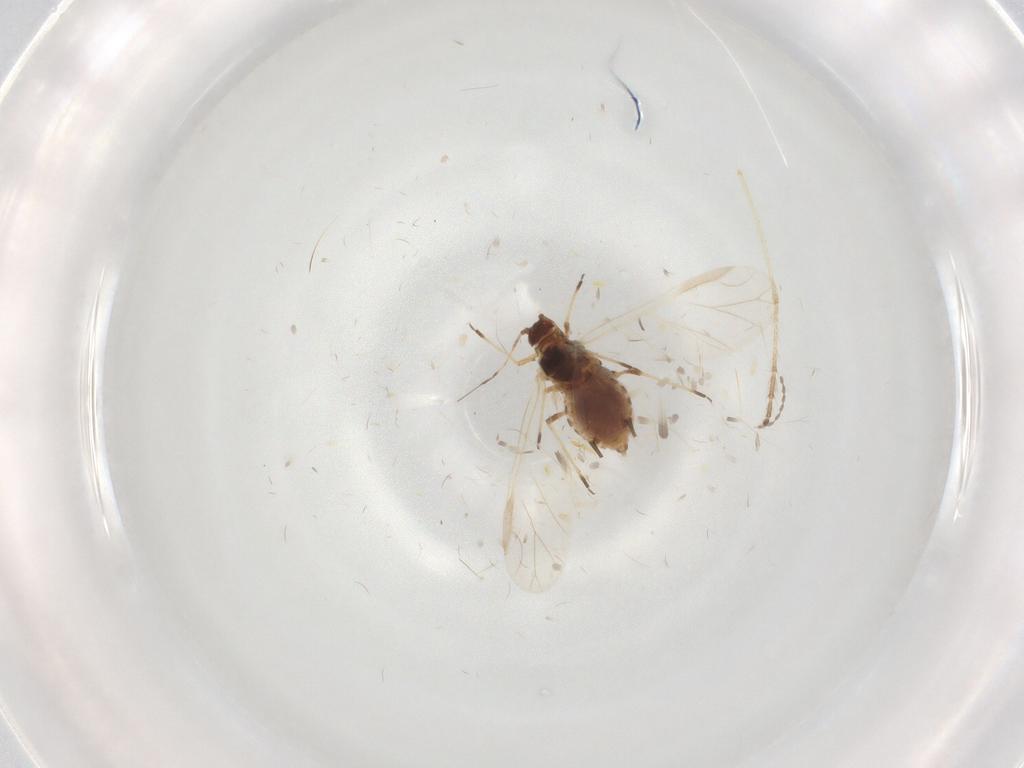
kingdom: Animalia
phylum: Arthropoda
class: Insecta
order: Hemiptera
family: Aphididae
